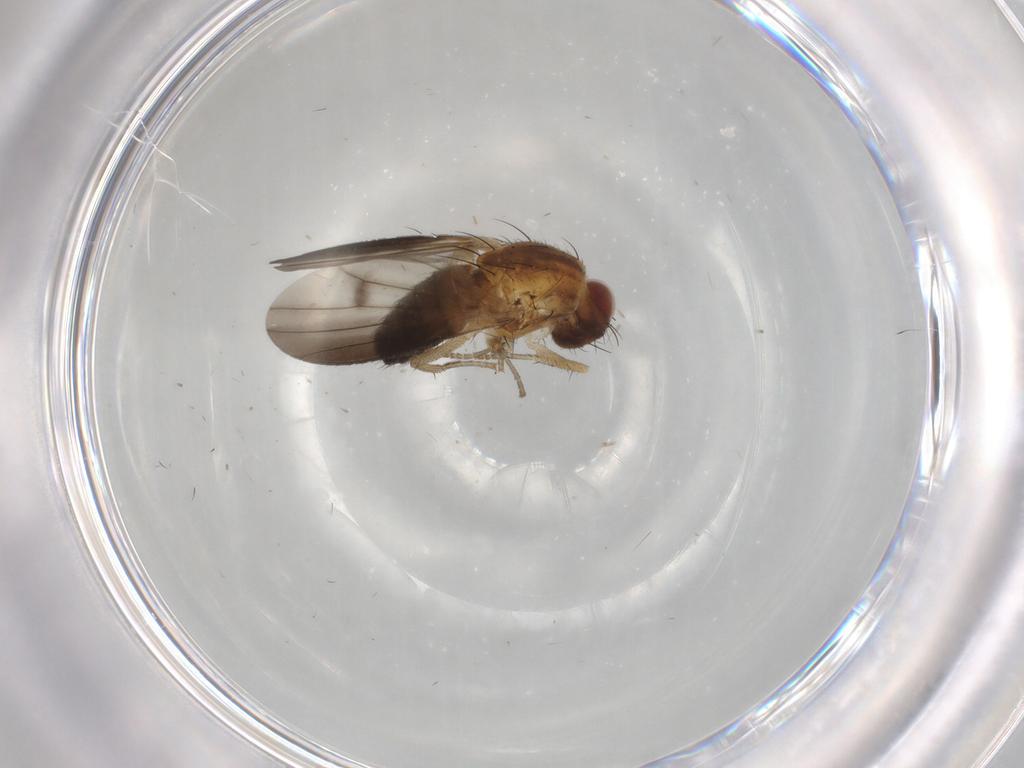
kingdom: Animalia
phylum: Arthropoda
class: Insecta
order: Diptera
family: Heleomyzidae
